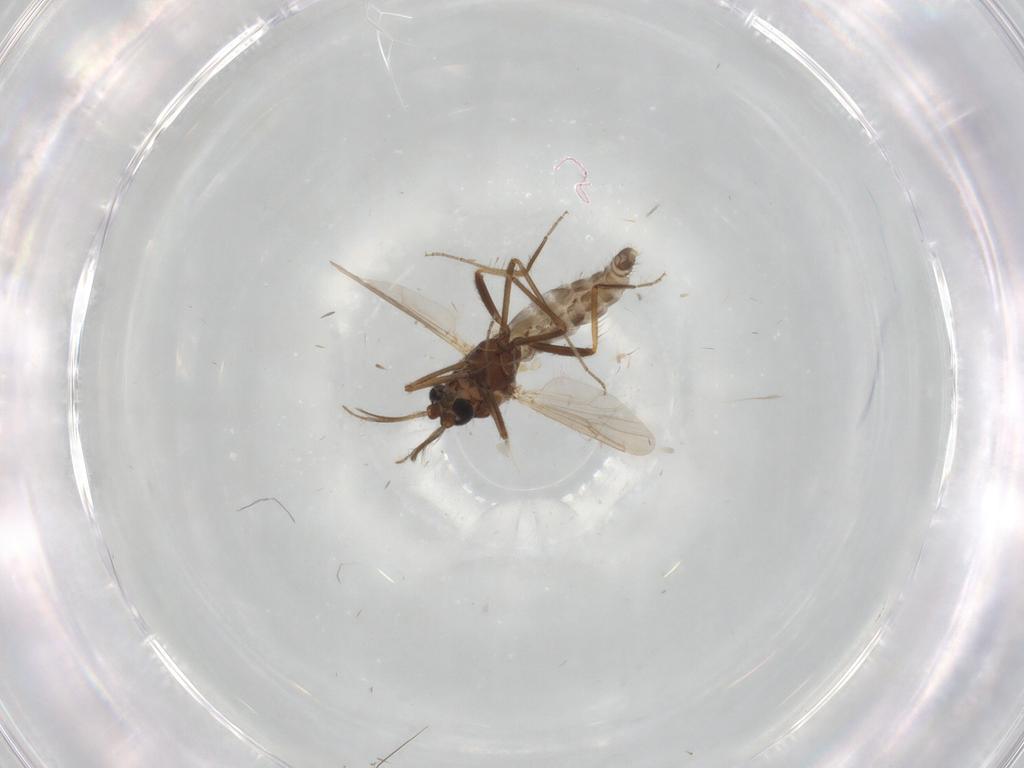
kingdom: Animalia
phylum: Arthropoda
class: Insecta
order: Diptera
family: Ceratopogonidae
